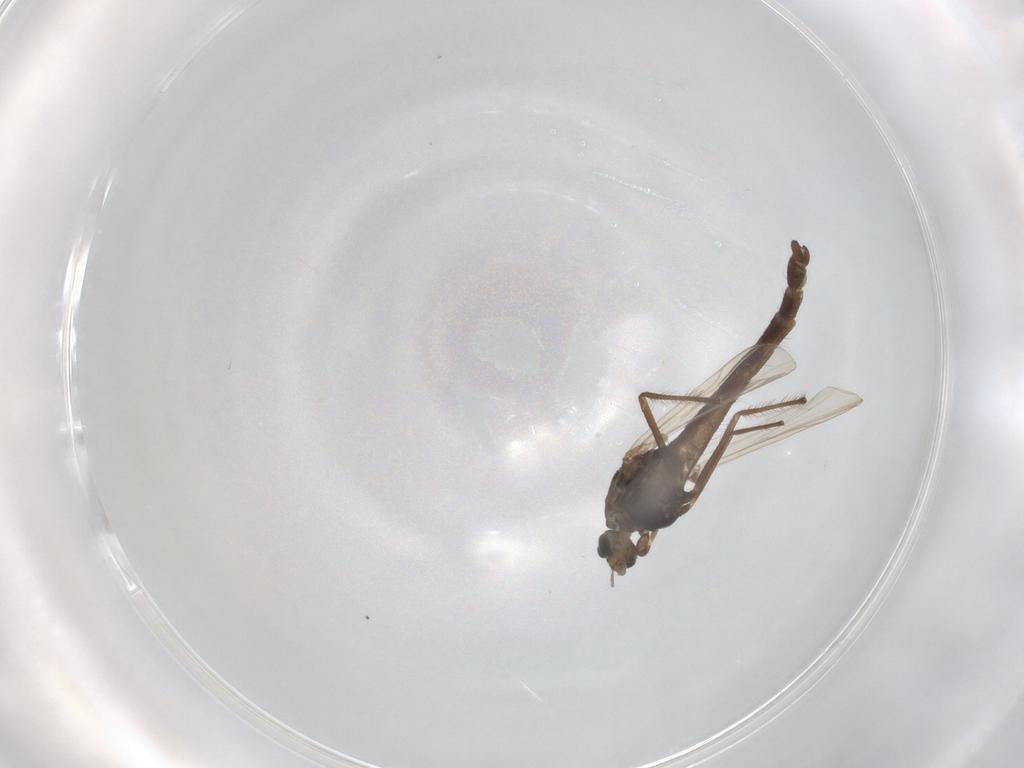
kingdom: Animalia
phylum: Arthropoda
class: Insecta
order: Diptera
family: Chironomidae
